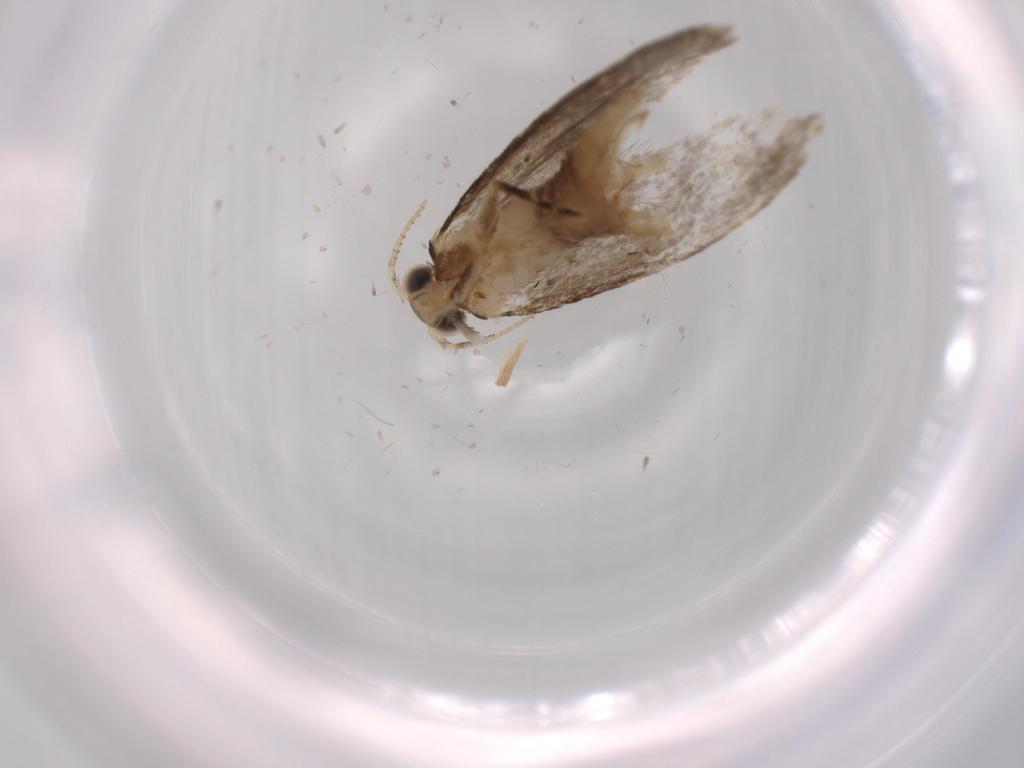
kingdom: Animalia
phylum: Arthropoda
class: Insecta
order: Lepidoptera
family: Tineidae
